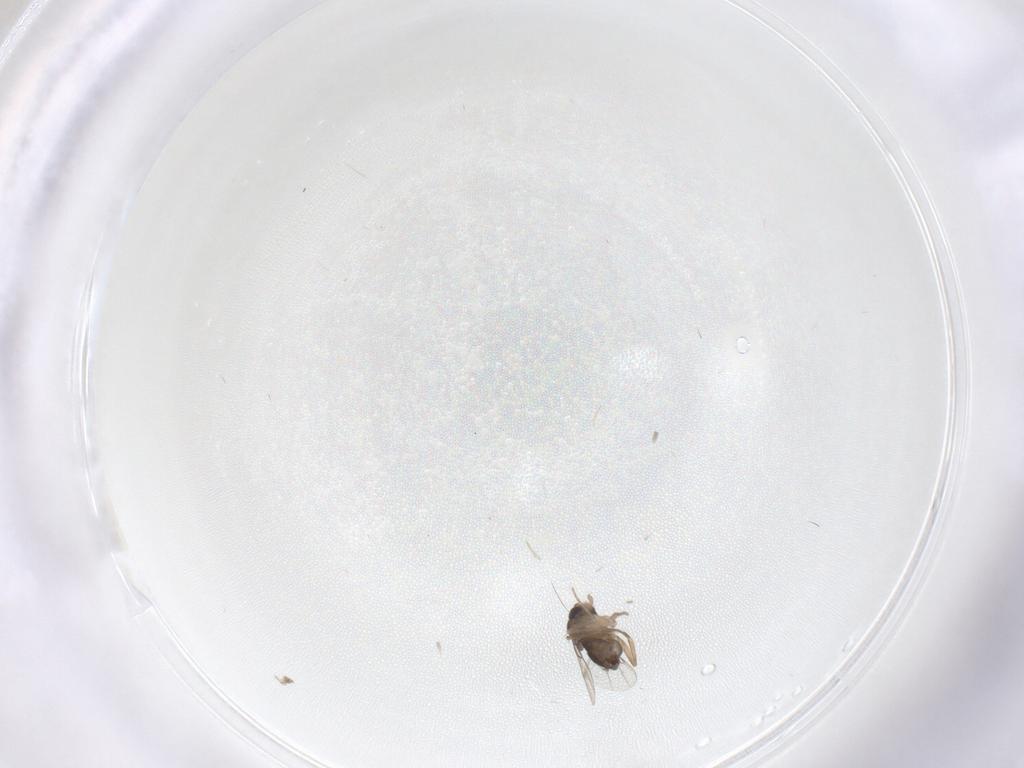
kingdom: Animalia
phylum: Arthropoda
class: Insecta
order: Diptera
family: Phoridae
